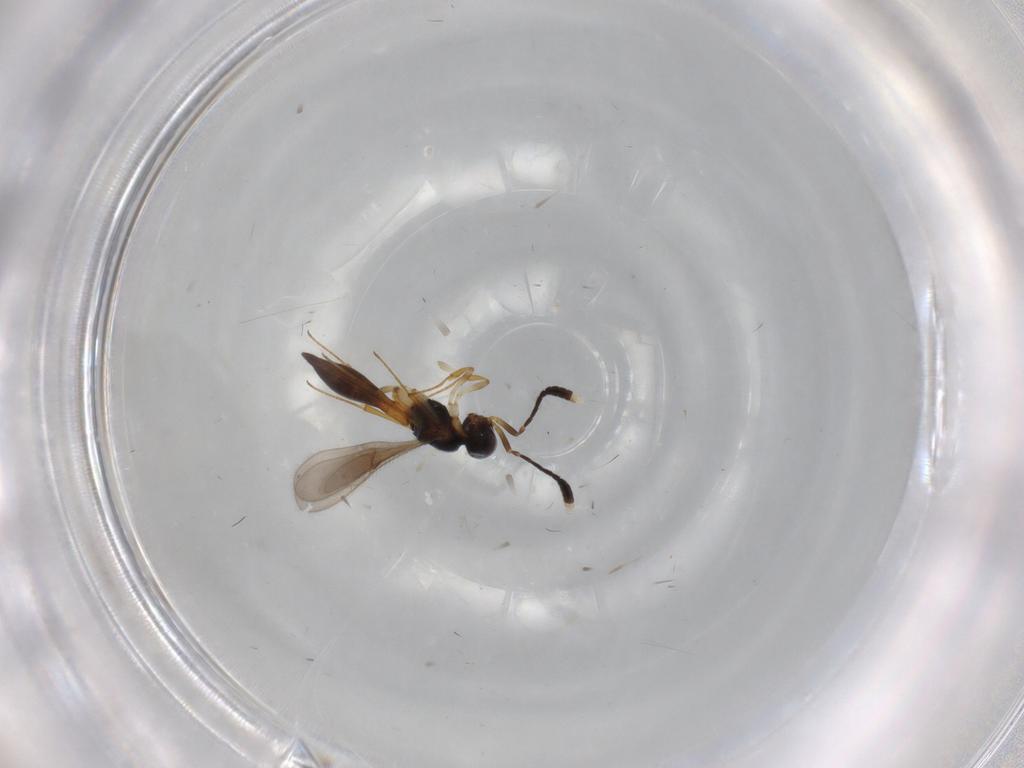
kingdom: Animalia
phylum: Arthropoda
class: Insecta
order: Hymenoptera
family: Scelionidae
